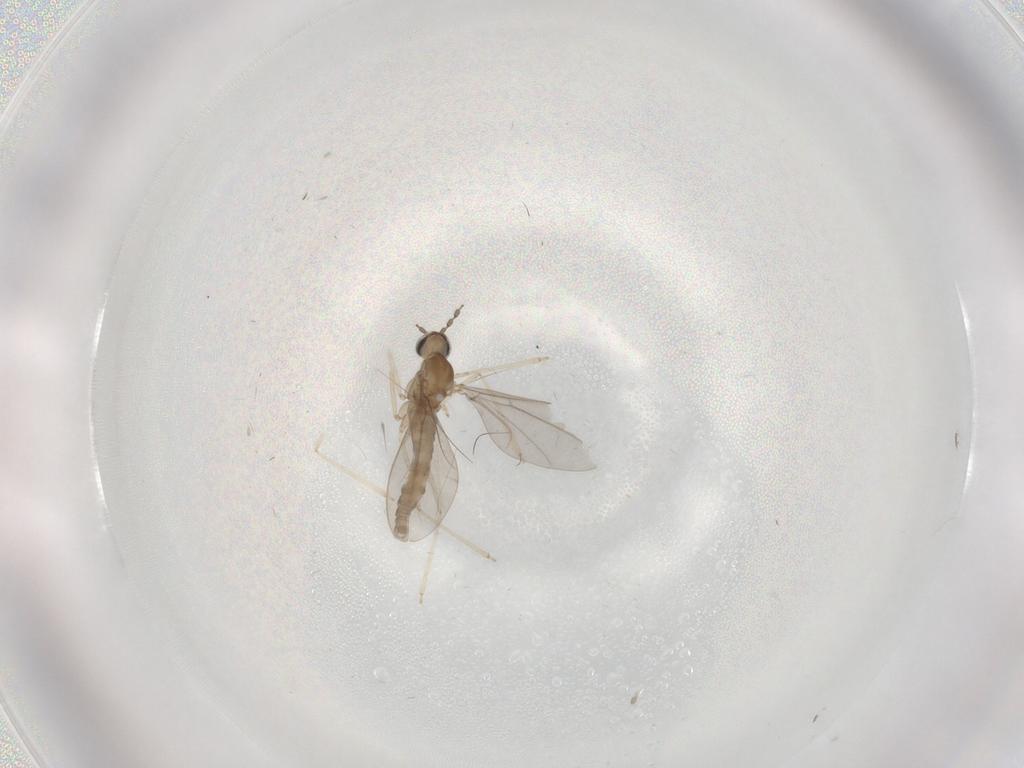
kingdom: Animalia
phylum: Arthropoda
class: Insecta
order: Diptera
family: Cecidomyiidae
